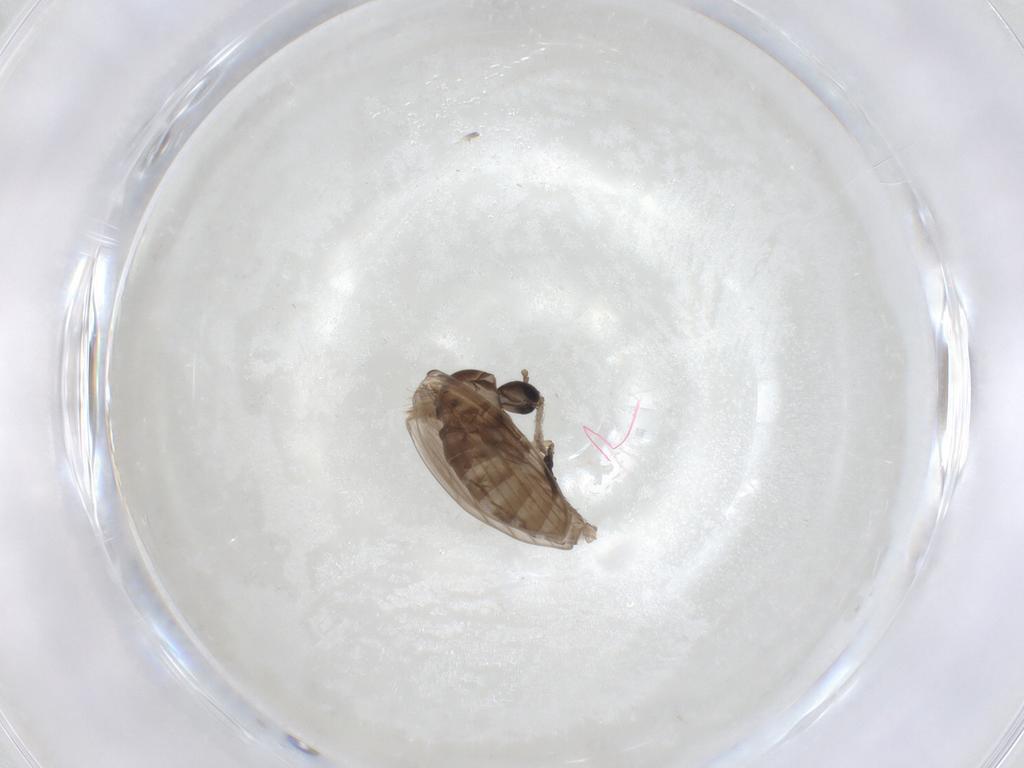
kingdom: Animalia
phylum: Arthropoda
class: Insecta
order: Diptera
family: Psychodidae
